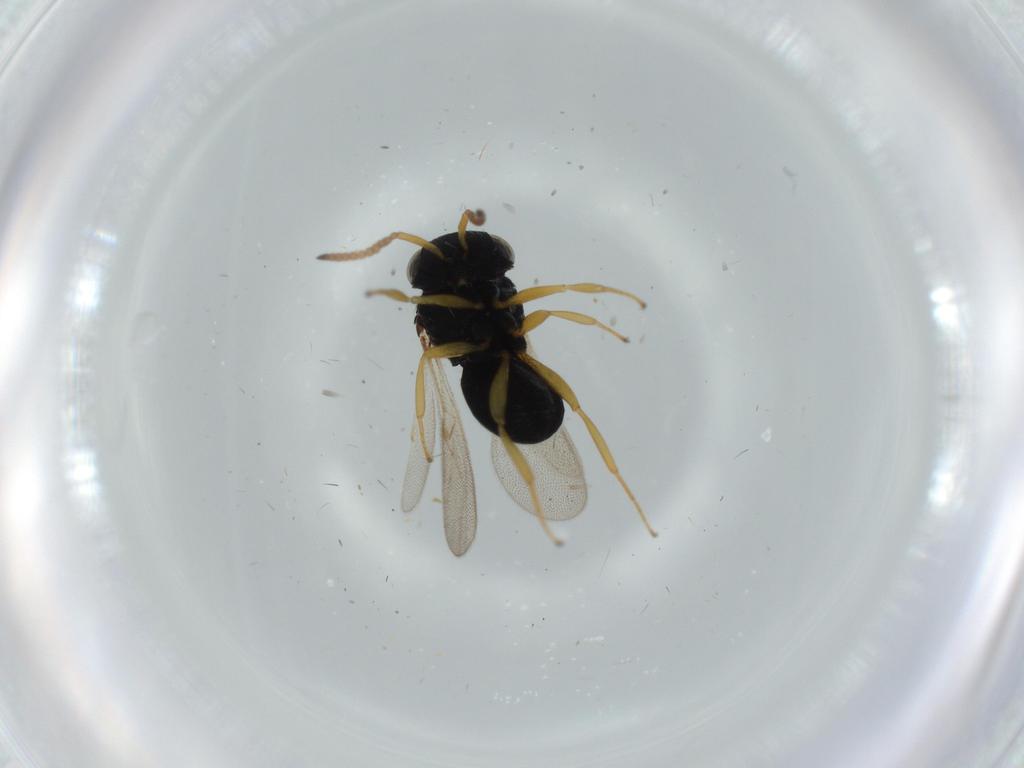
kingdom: Animalia
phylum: Arthropoda
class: Insecta
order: Hymenoptera
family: Scelionidae
